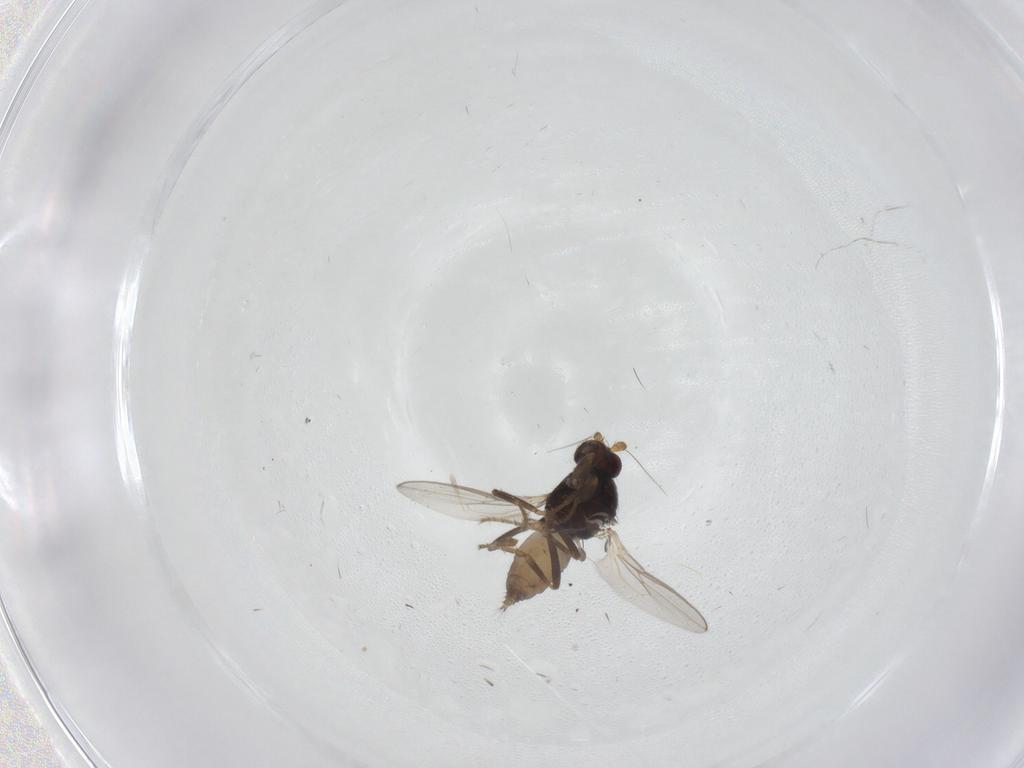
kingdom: Animalia
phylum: Arthropoda
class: Insecta
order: Diptera
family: Sphaeroceridae
